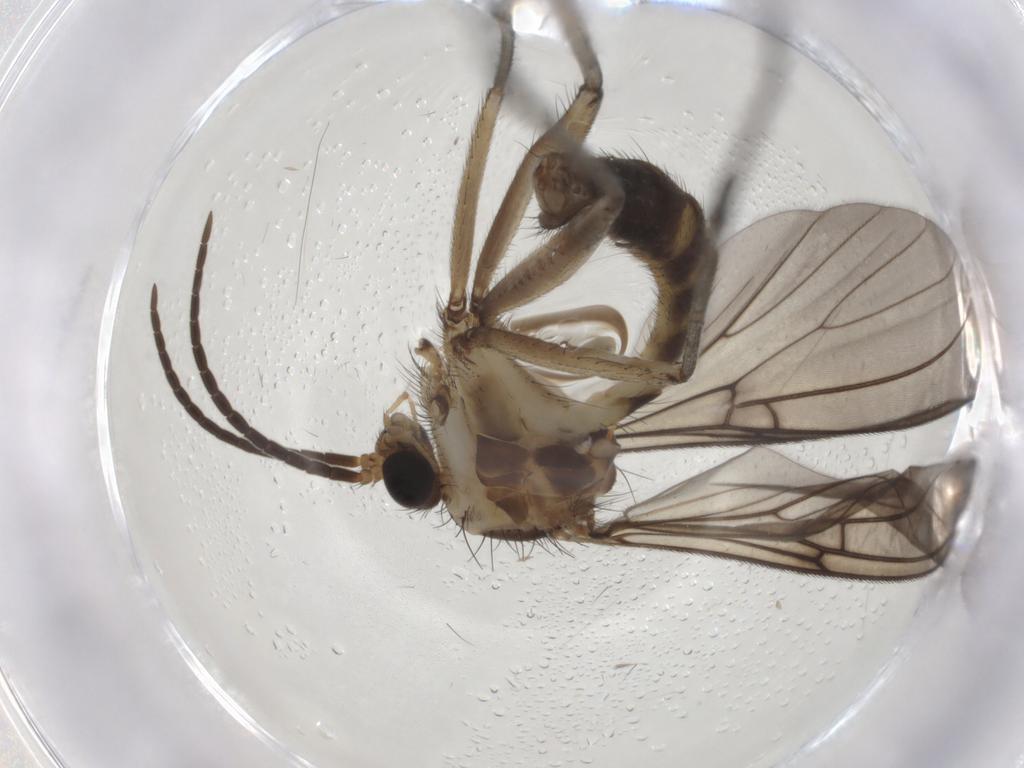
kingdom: Animalia
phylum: Arthropoda
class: Insecta
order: Diptera
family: Mycetophilidae
